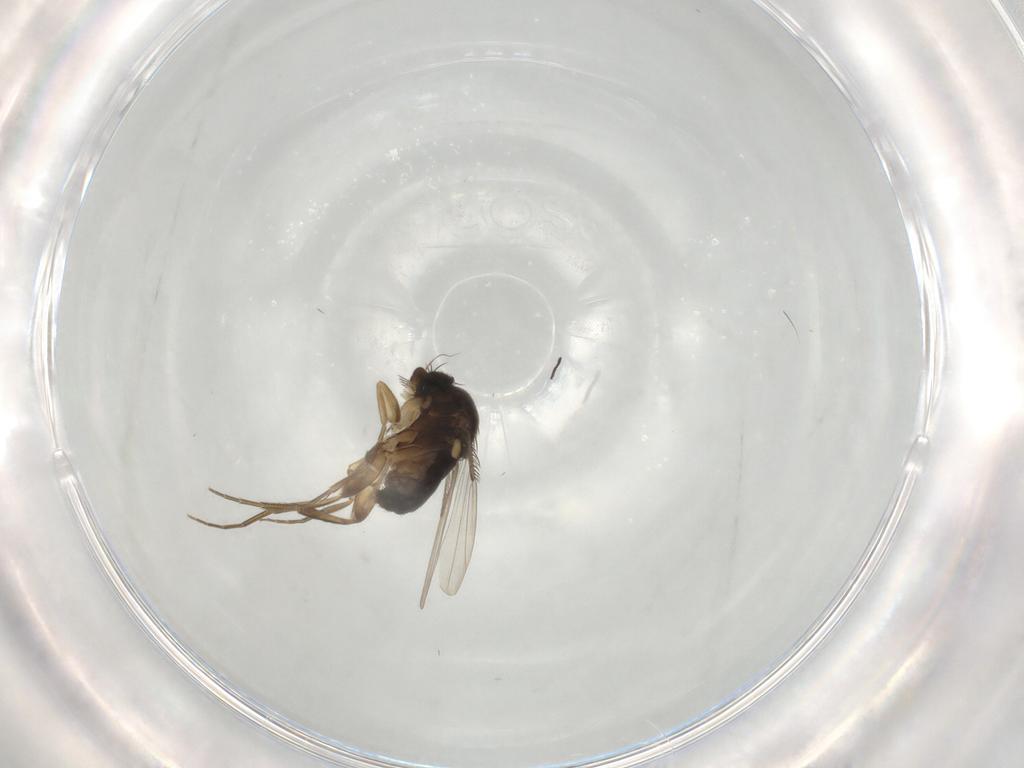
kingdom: Animalia
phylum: Arthropoda
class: Insecta
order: Diptera
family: Phoridae
